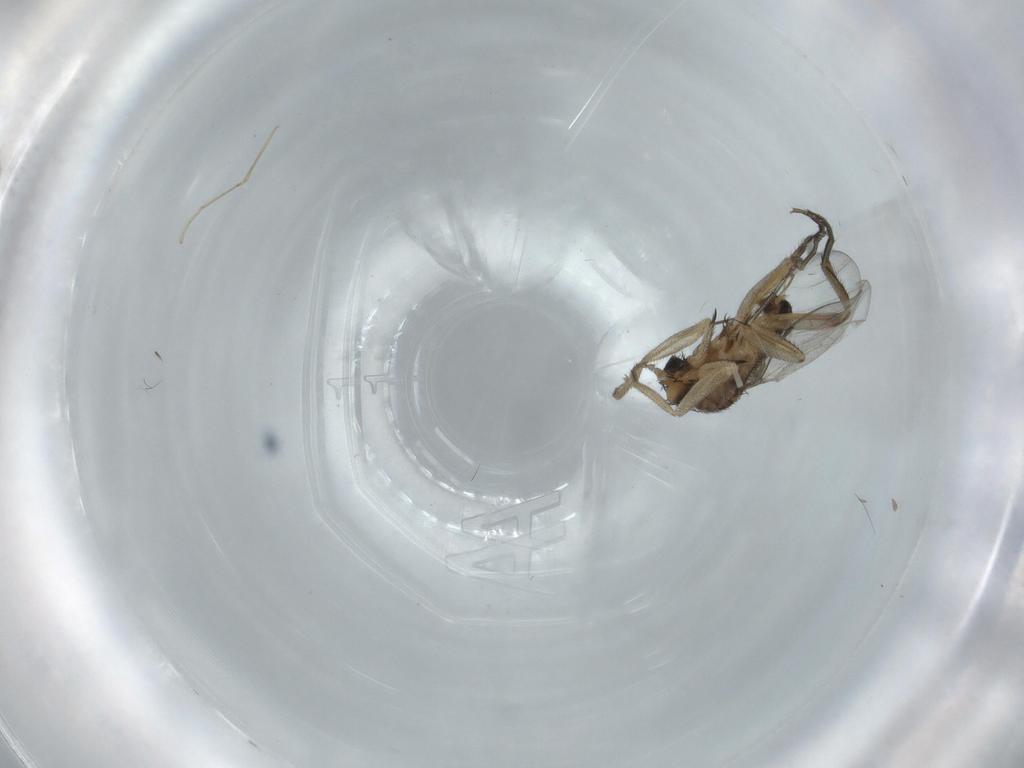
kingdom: Animalia
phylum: Arthropoda
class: Insecta
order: Diptera
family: Phoridae
